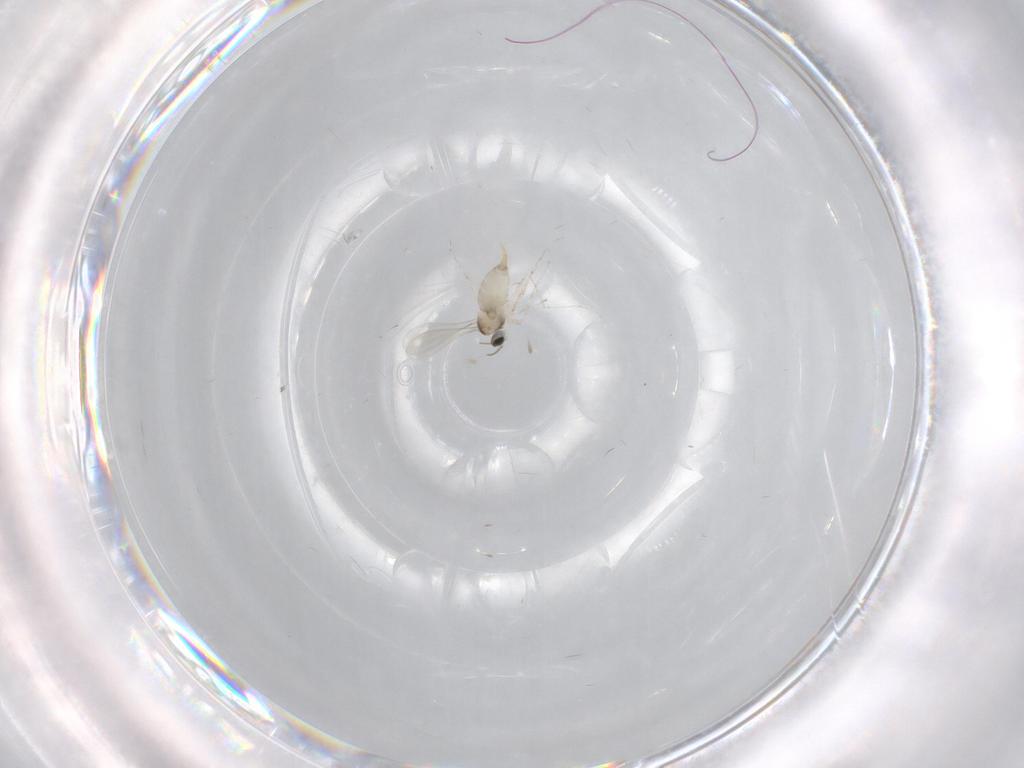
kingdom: Animalia
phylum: Arthropoda
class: Insecta
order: Diptera
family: Cecidomyiidae
